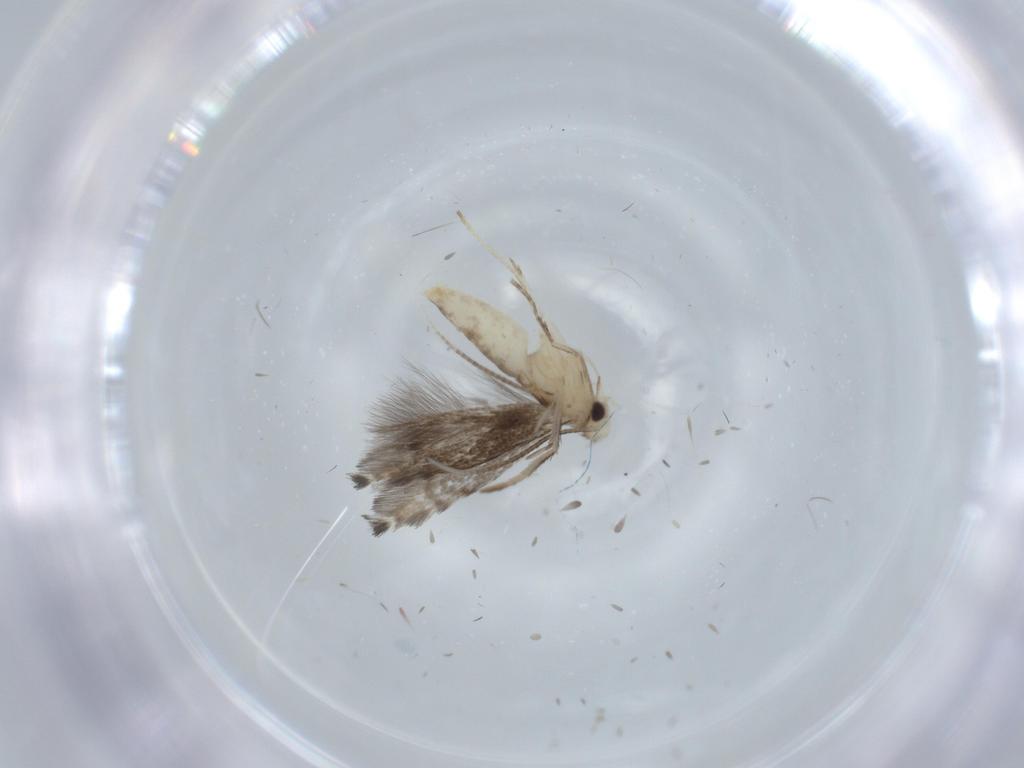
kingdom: Animalia
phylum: Arthropoda
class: Insecta
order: Lepidoptera
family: Gracillariidae
